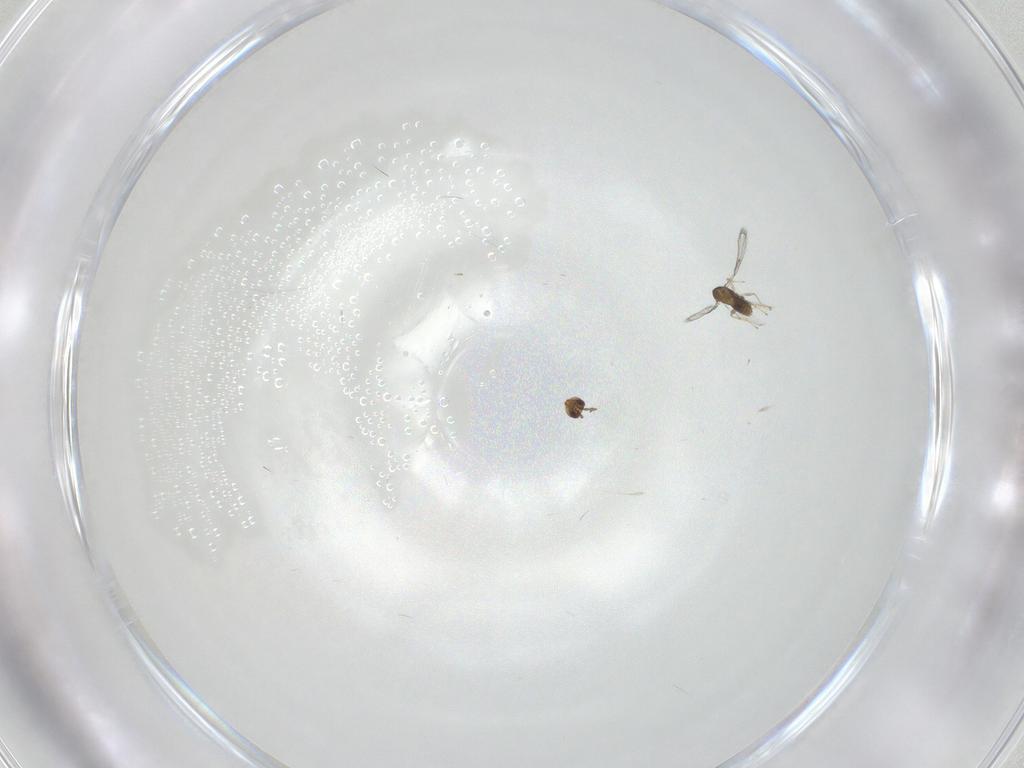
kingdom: Animalia
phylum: Arthropoda
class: Insecta
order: Hymenoptera
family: Trichogrammatidae
